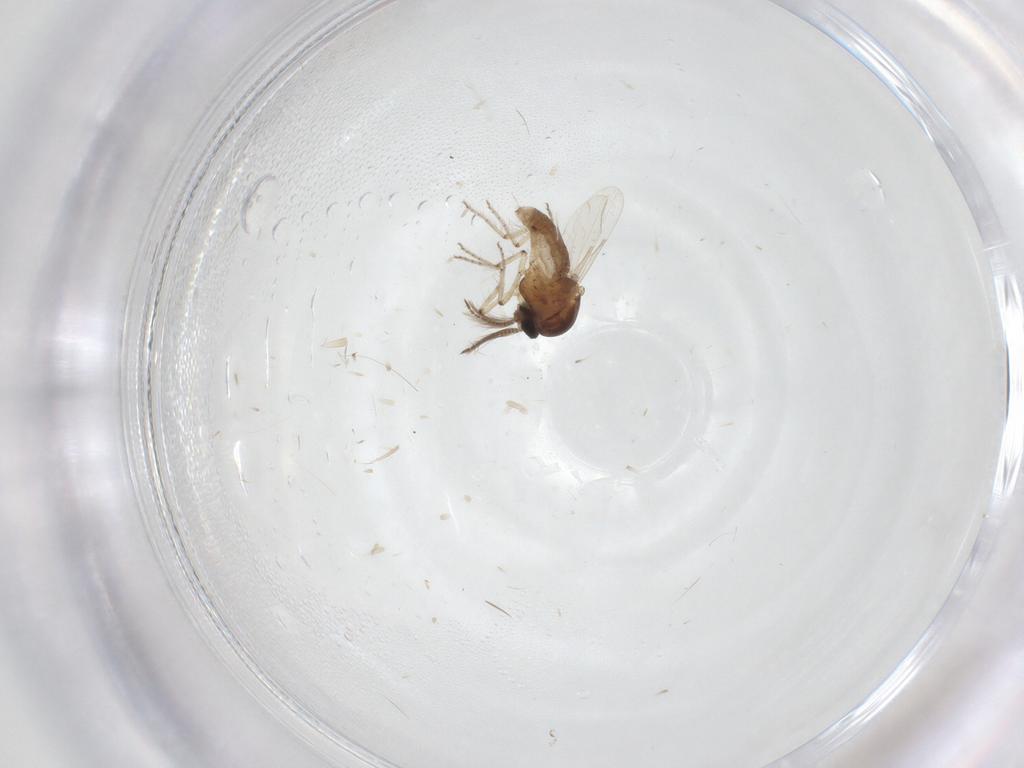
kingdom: Animalia
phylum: Arthropoda
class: Insecta
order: Diptera
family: Ceratopogonidae
